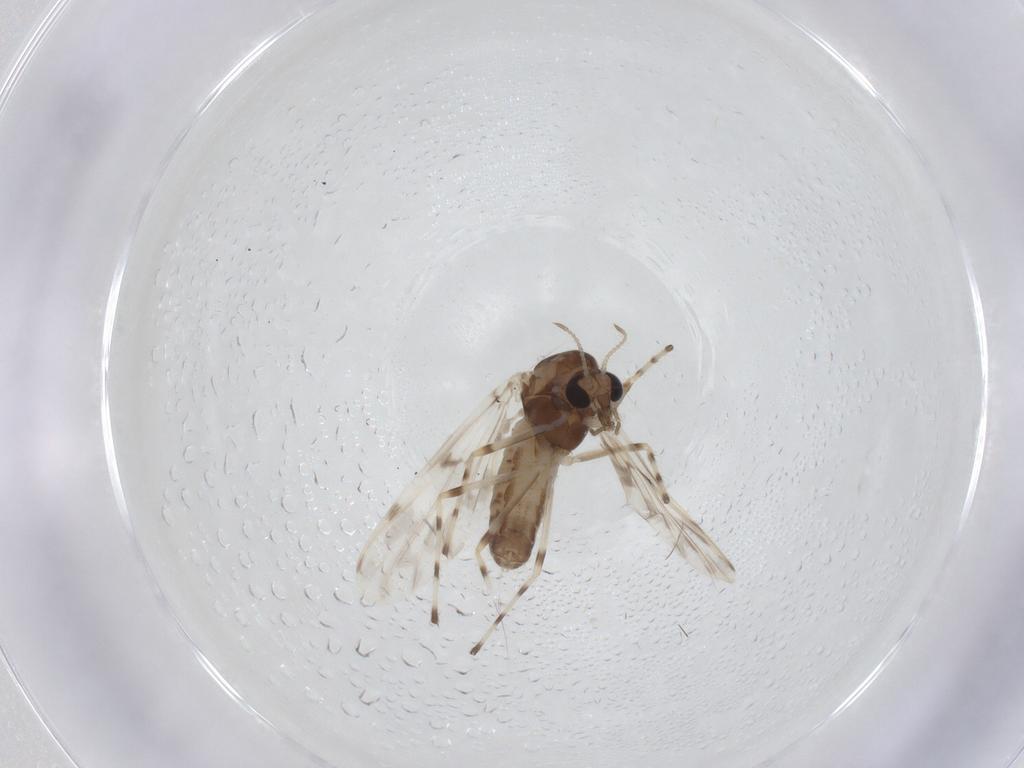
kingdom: Animalia
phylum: Arthropoda
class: Insecta
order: Diptera
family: Chironomidae
